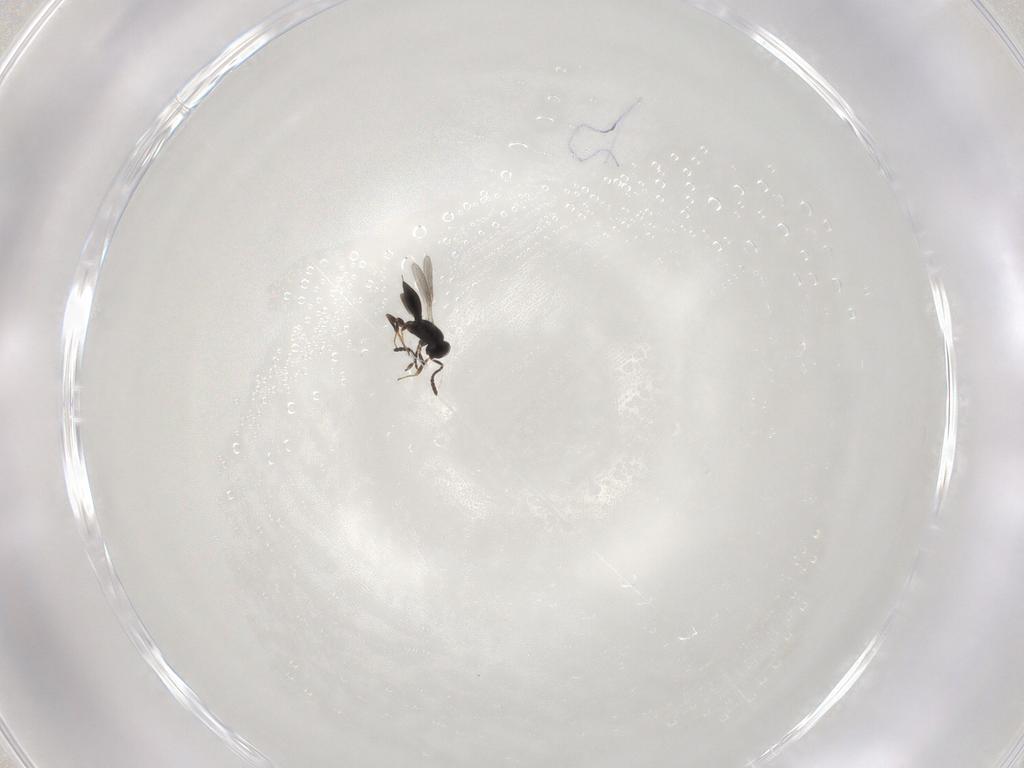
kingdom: Animalia
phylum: Arthropoda
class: Insecta
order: Hymenoptera
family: Scelionidae
